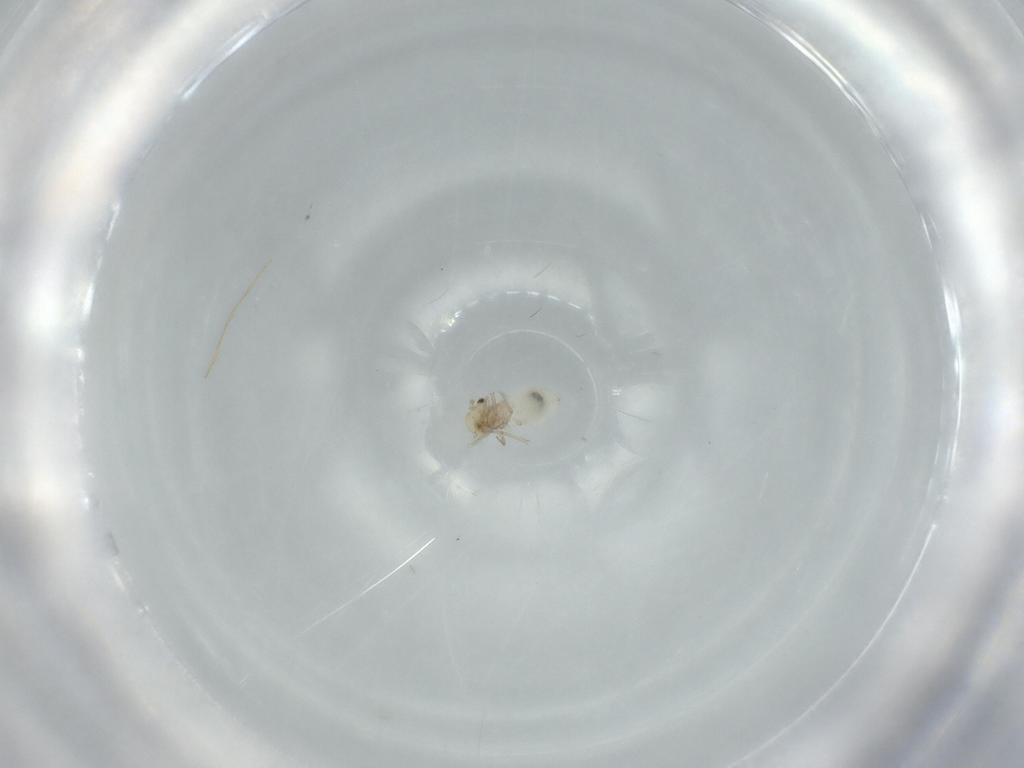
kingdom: Animalia
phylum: Arthropoda
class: Insecta
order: Psocodea
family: Lachesillidae
